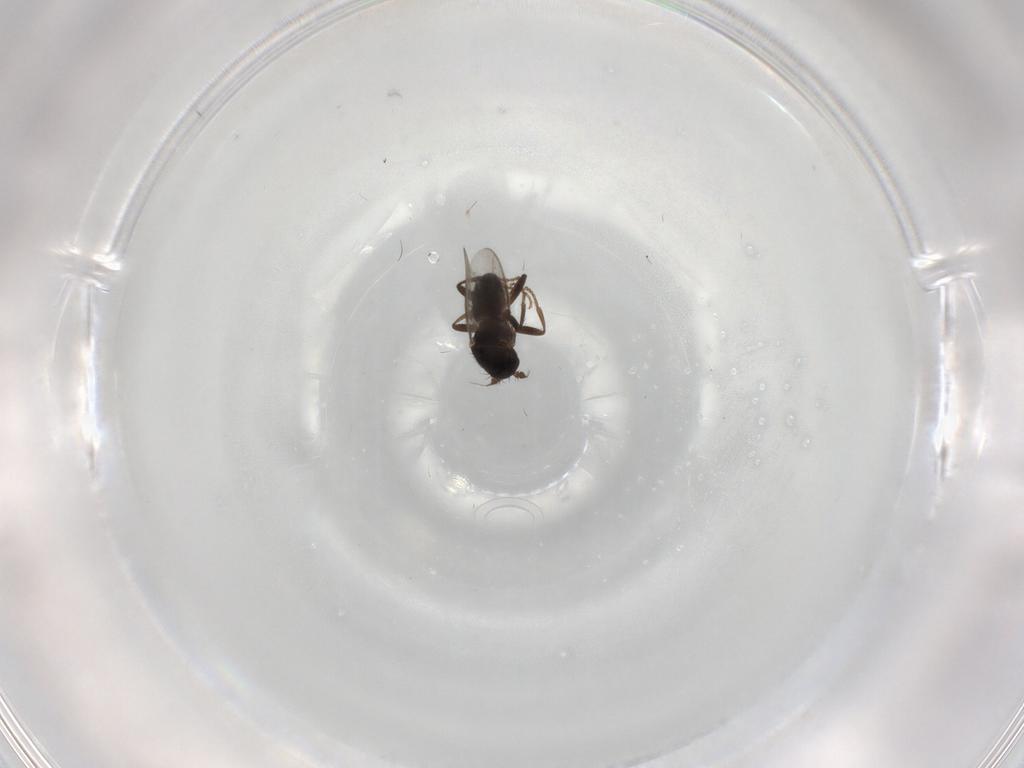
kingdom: Animalia
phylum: Arthropoda
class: Insecta
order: Diptera
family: Sphaeroceridae
